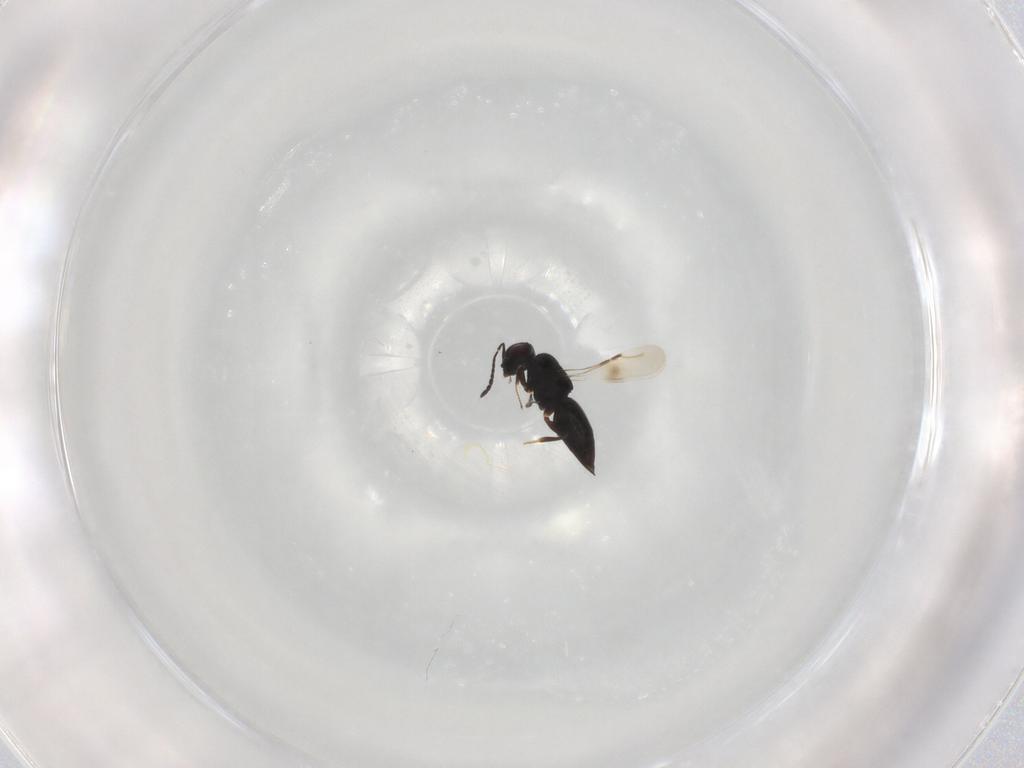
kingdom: Animalia
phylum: Arthropoda
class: Insecta
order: Hymenoptera
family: Ceraphronidae
